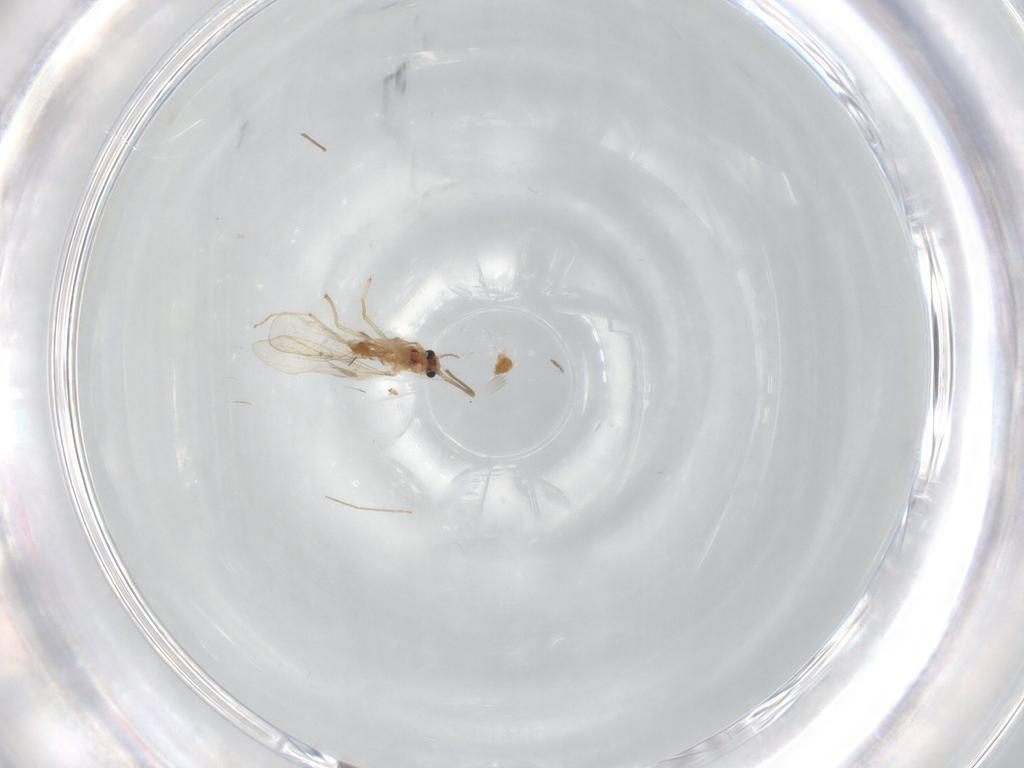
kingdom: Animalia
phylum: Arthropoda
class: Insecta
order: Diptera
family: Chironomidae
